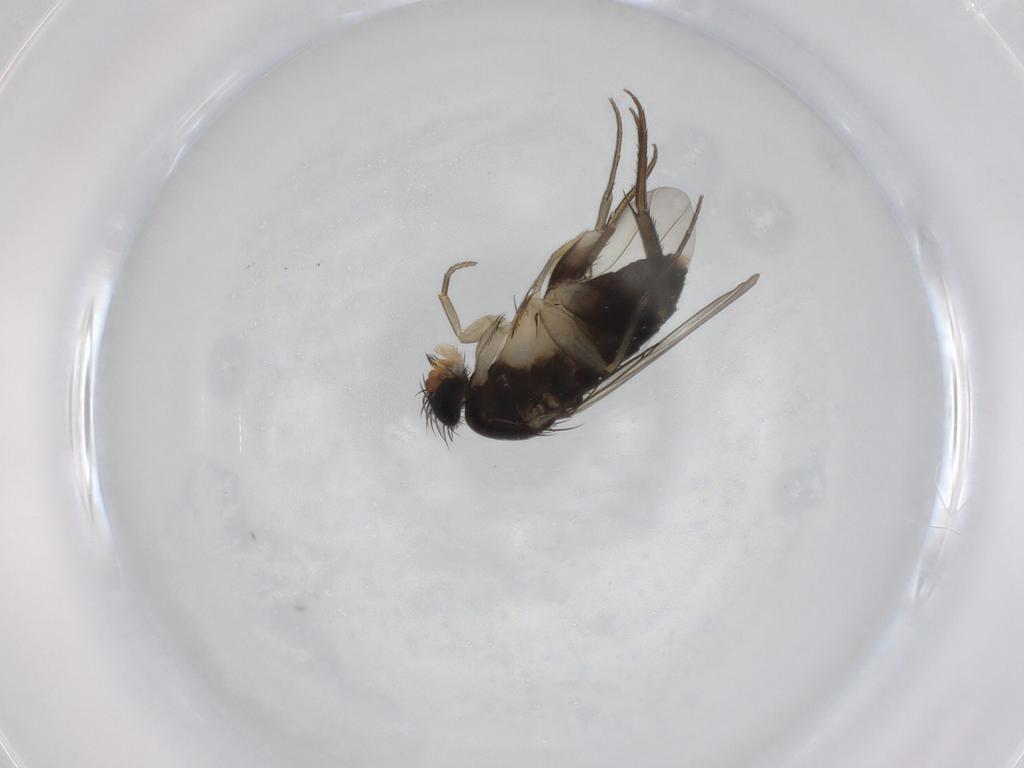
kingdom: Animalia
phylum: Arthropoda
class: Insecta
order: Diptera
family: Phoridae
